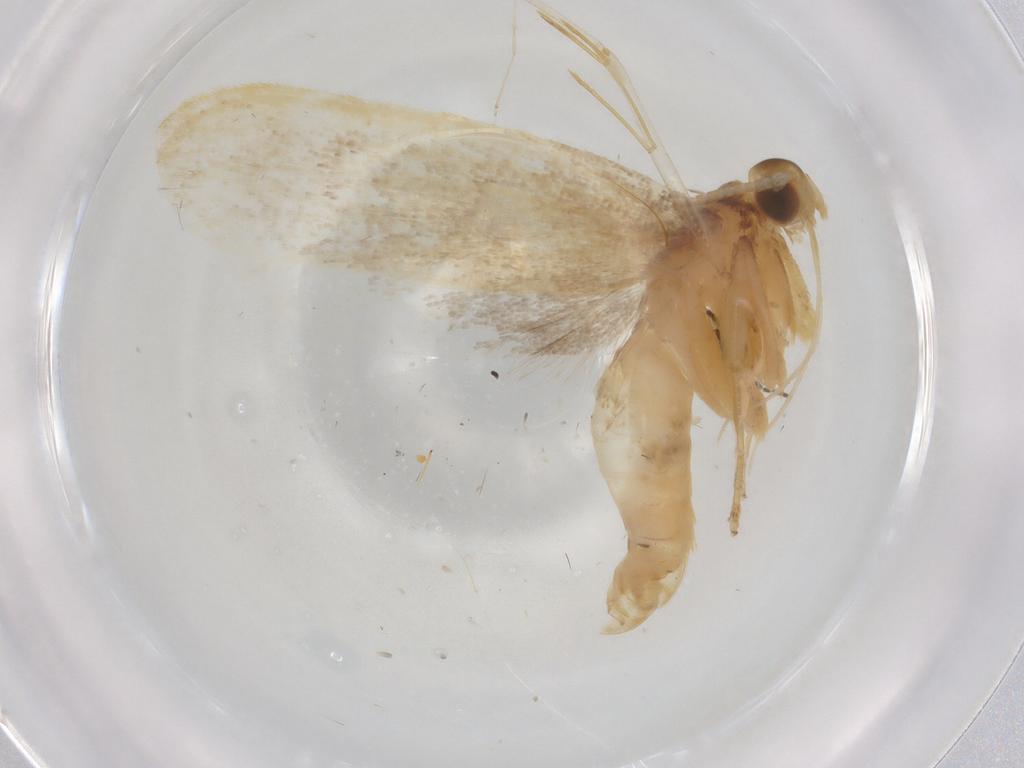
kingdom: Animalia
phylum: Arthropoda
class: Insecta
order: Lepidoptera
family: Lecithoceridae
